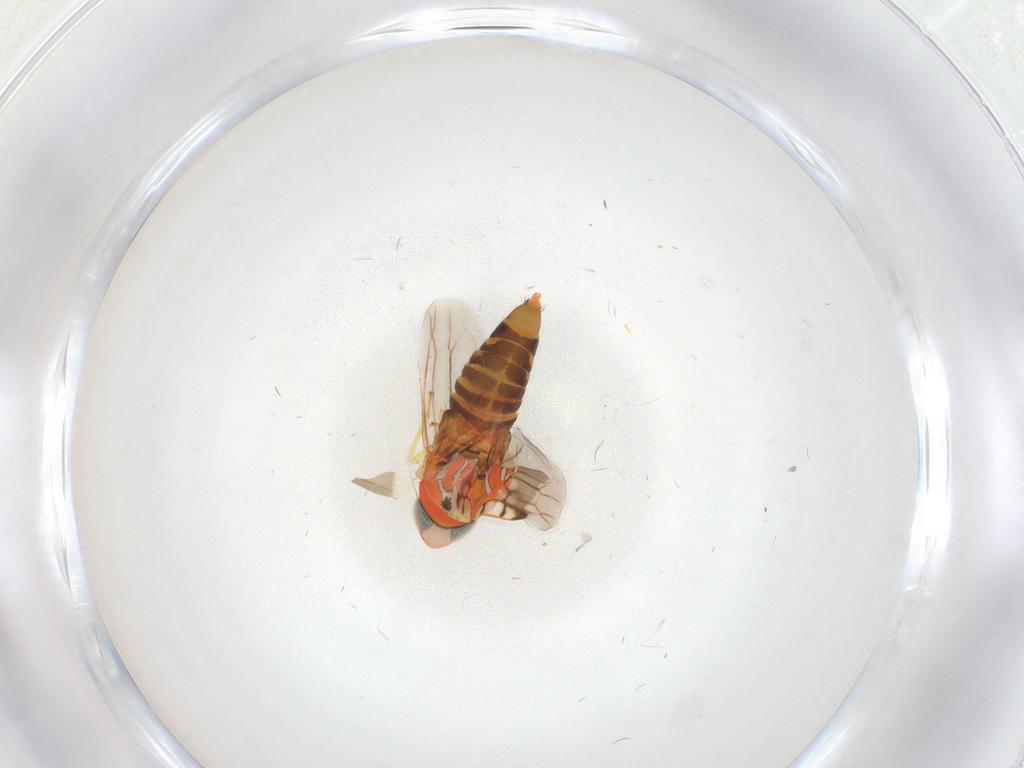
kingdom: Animalia
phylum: Arthropoda
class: Insecta
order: Hemiptera
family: Cicadellidae
